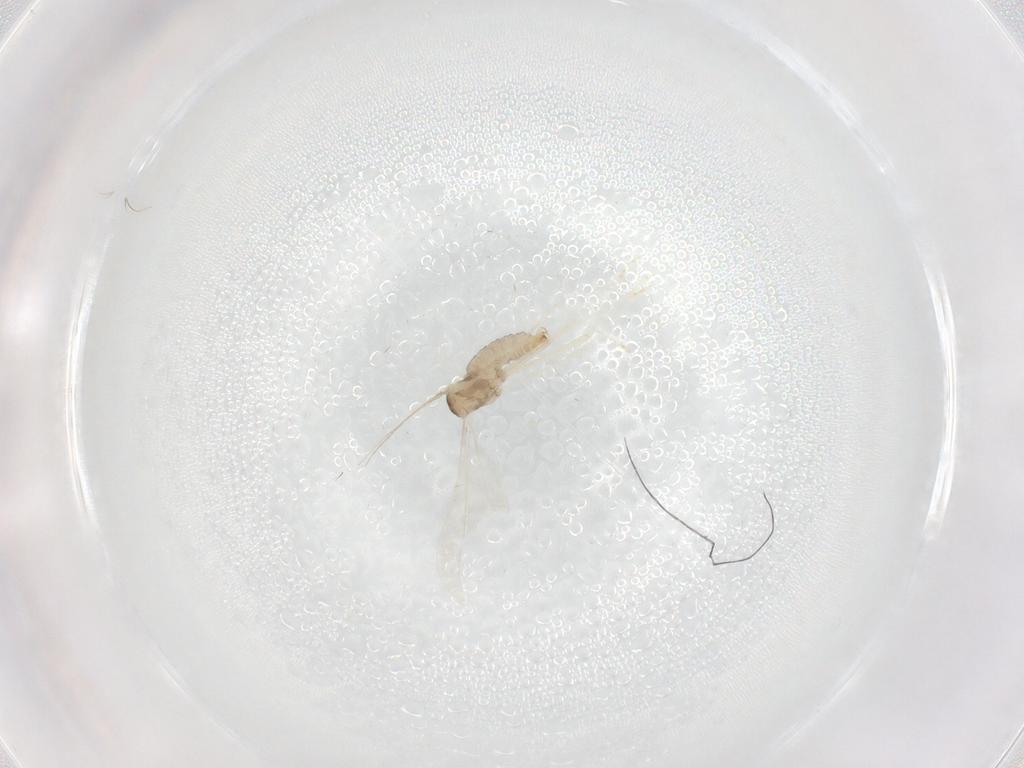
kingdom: Animalia
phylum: Arthropoda
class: Insecta
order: Diptera
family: Cecidomyiidae
